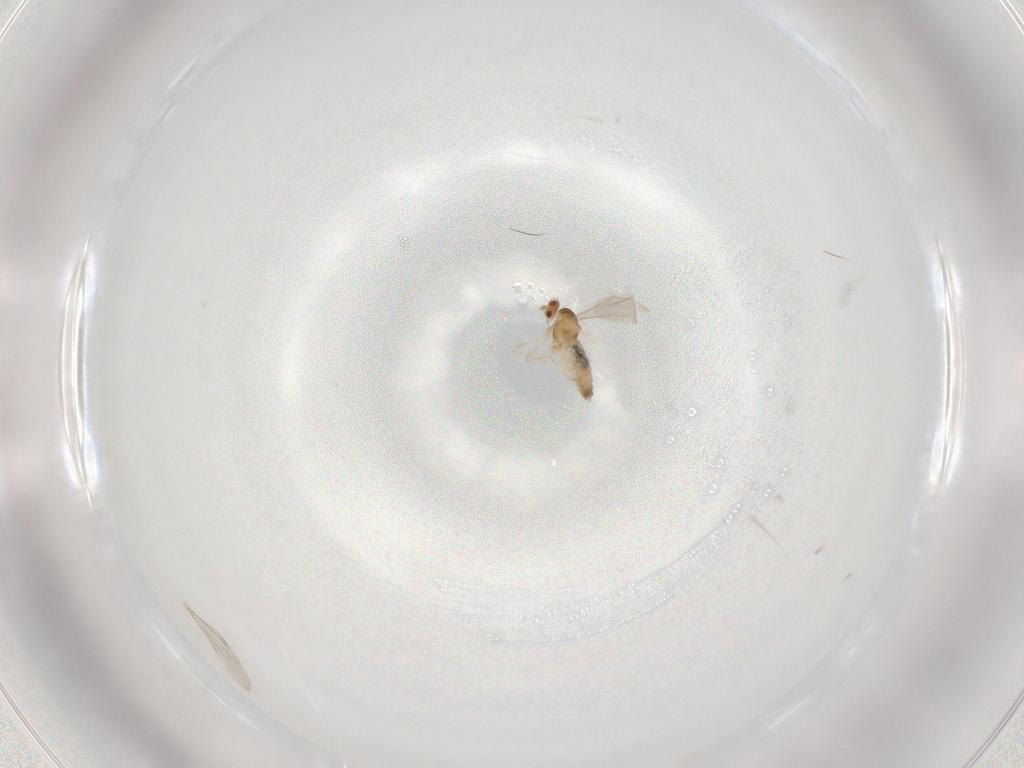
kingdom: Animalia
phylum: Arthropoda
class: Insecta
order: Diptera
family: Cecidomyiidae
